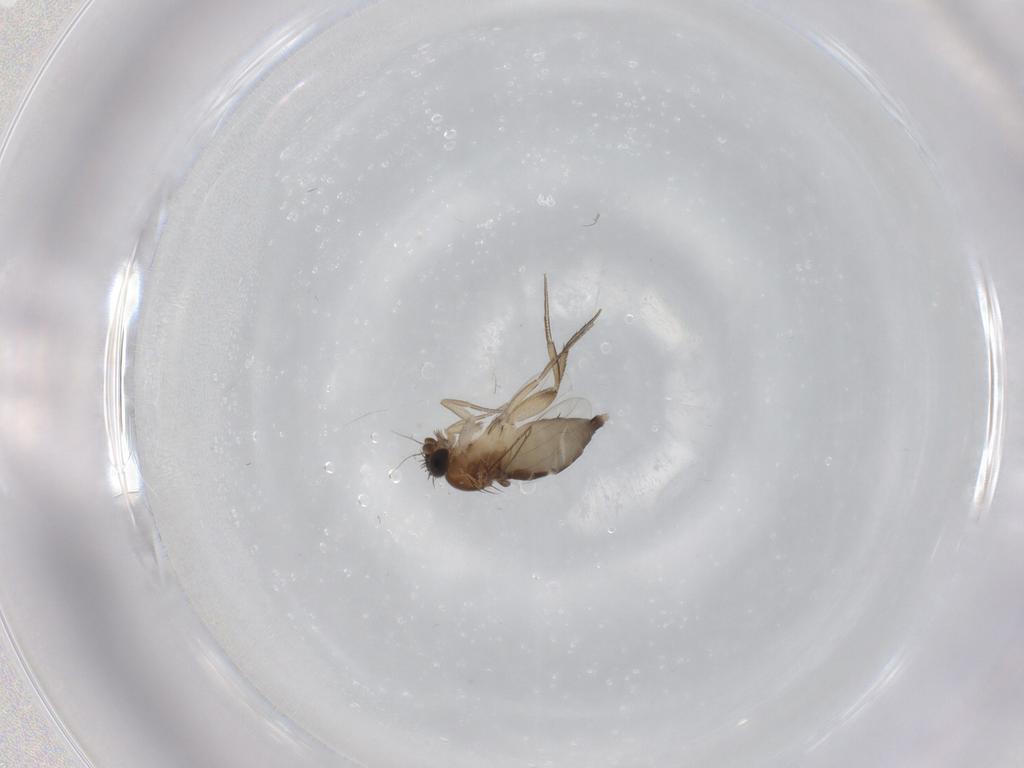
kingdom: Animalia
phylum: Arthropoda
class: Insecta
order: Diptera
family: Phoridae
